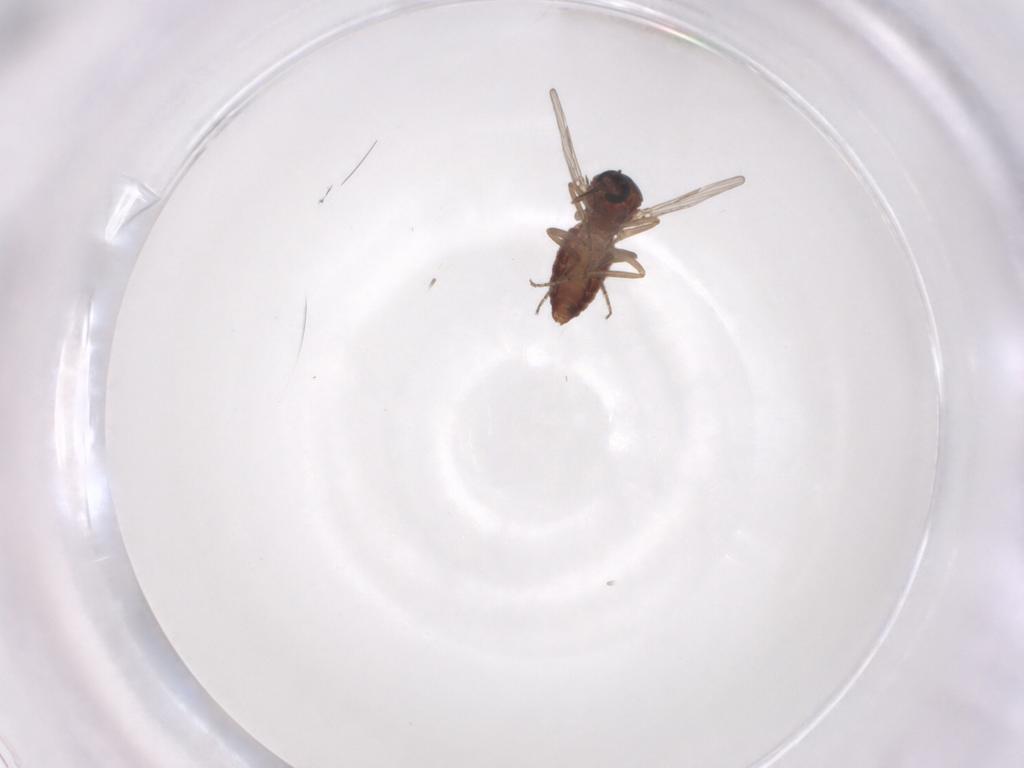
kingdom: Animalia
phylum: Arthropoda
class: Insecta
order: Diptera
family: Ceratopogonidae
